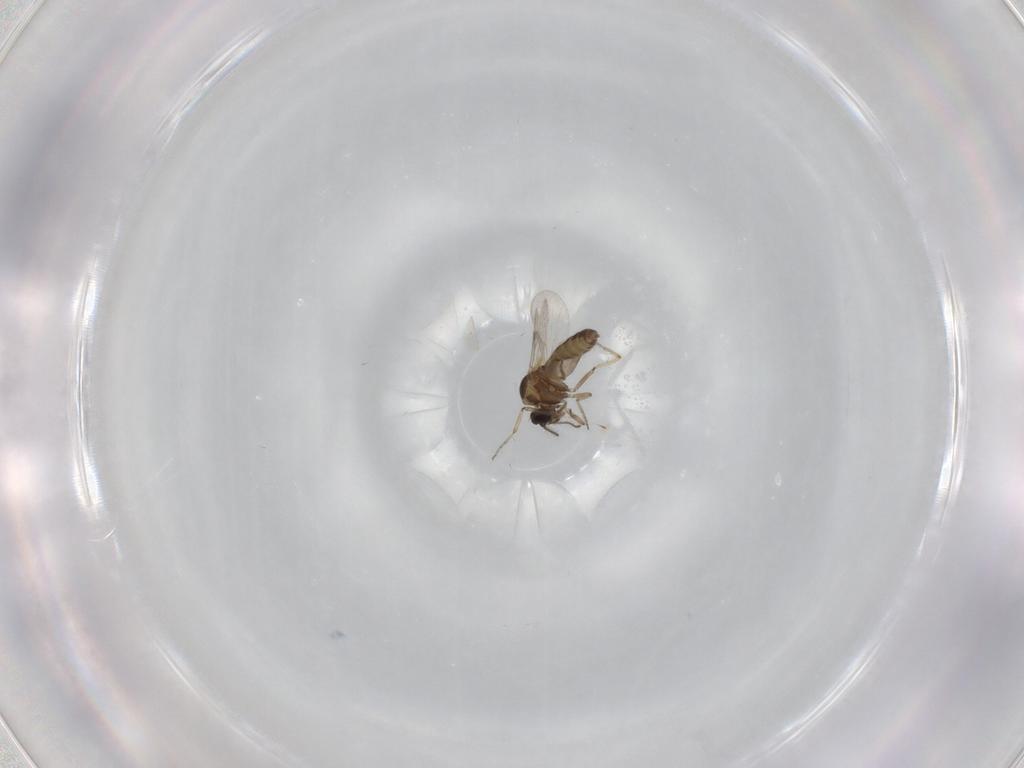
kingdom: Animalia
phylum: Arthropoda
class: Insecta
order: Diptera
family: Ceratopogonidae
